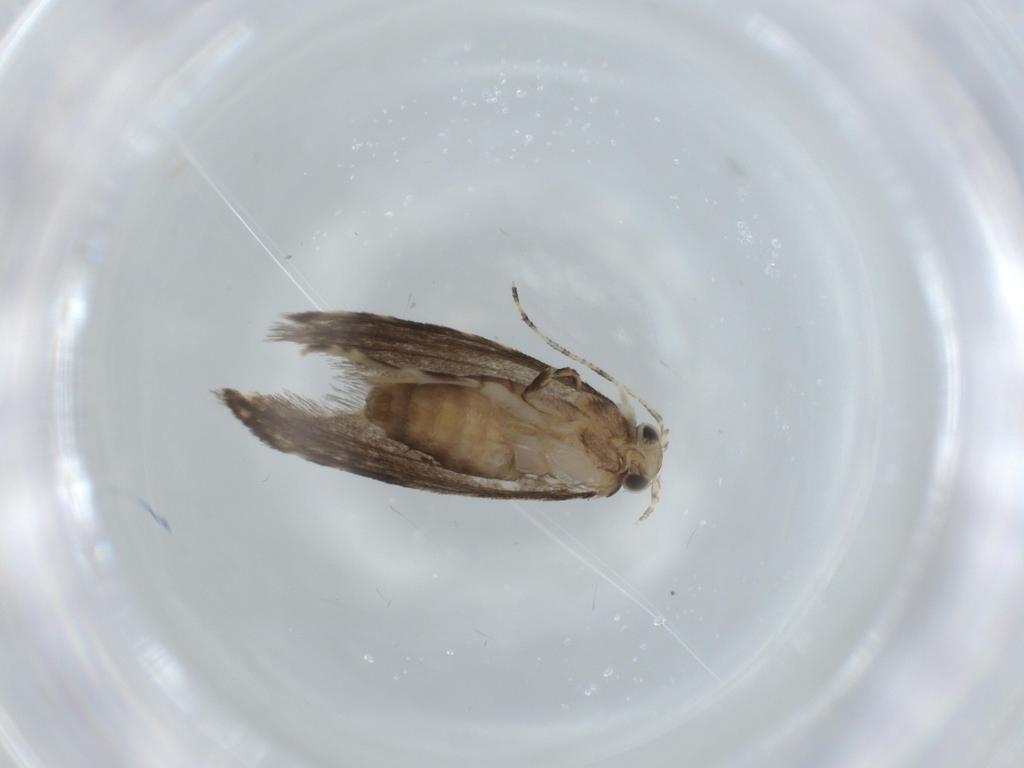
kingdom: Animalia
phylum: Arthropoda
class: Insecta
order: Lepidoptera
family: Tineidae
